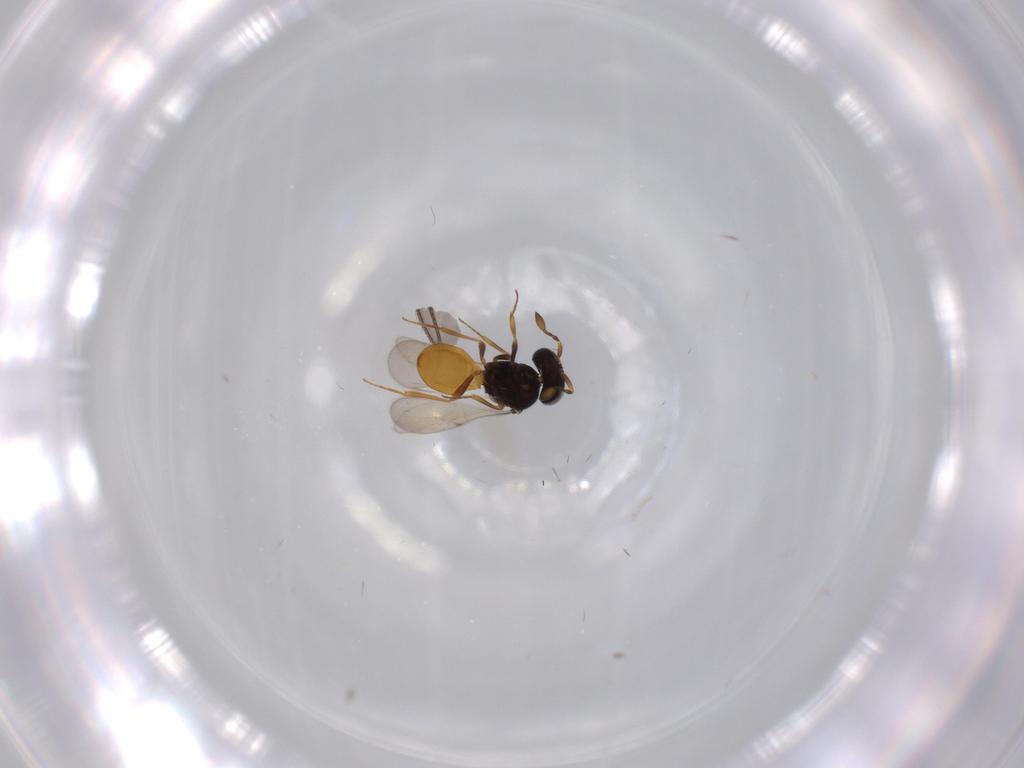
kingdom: Animalia
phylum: Arthropoda
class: Insecta
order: Hymenoptera
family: Scelionidae
